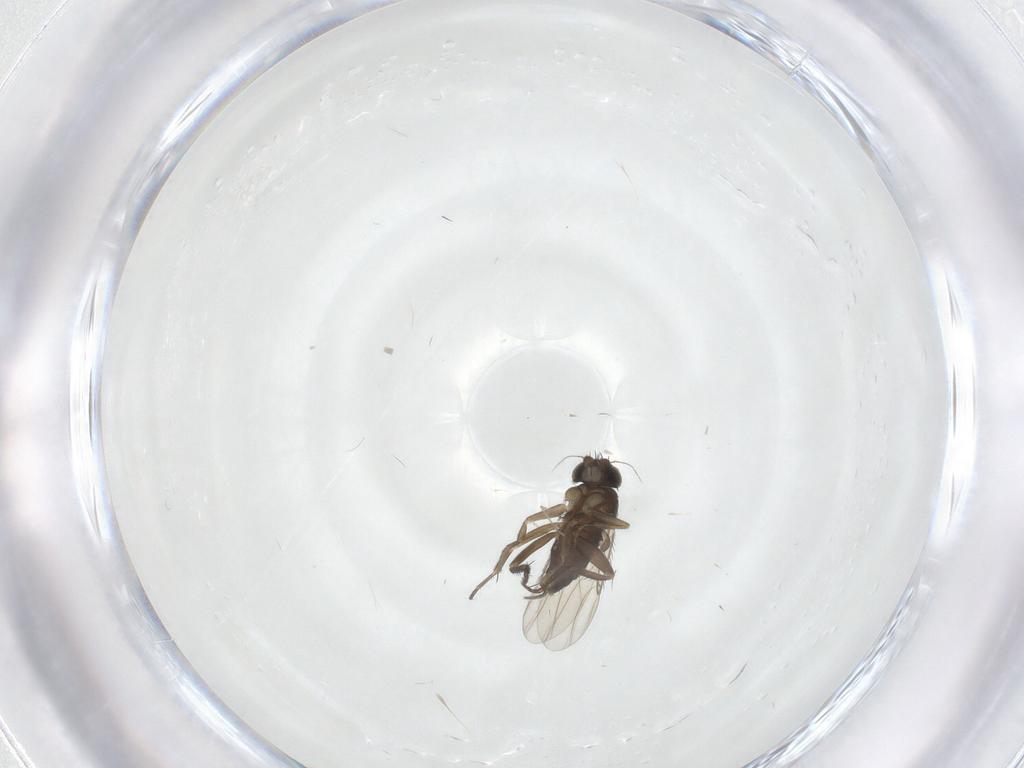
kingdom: Animalia
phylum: Arthropoda
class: Insecta
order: Diptera
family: Phoridae
